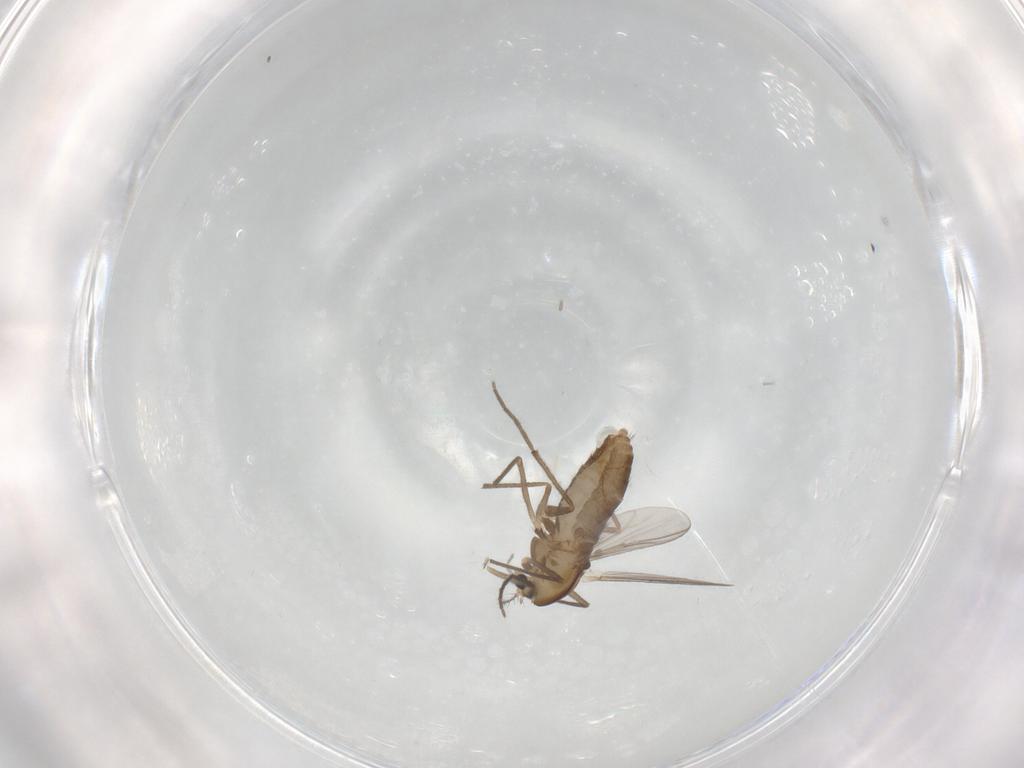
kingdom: Animalia
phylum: Arthropoda
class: Insecta
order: Diptera
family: Chironomidae
